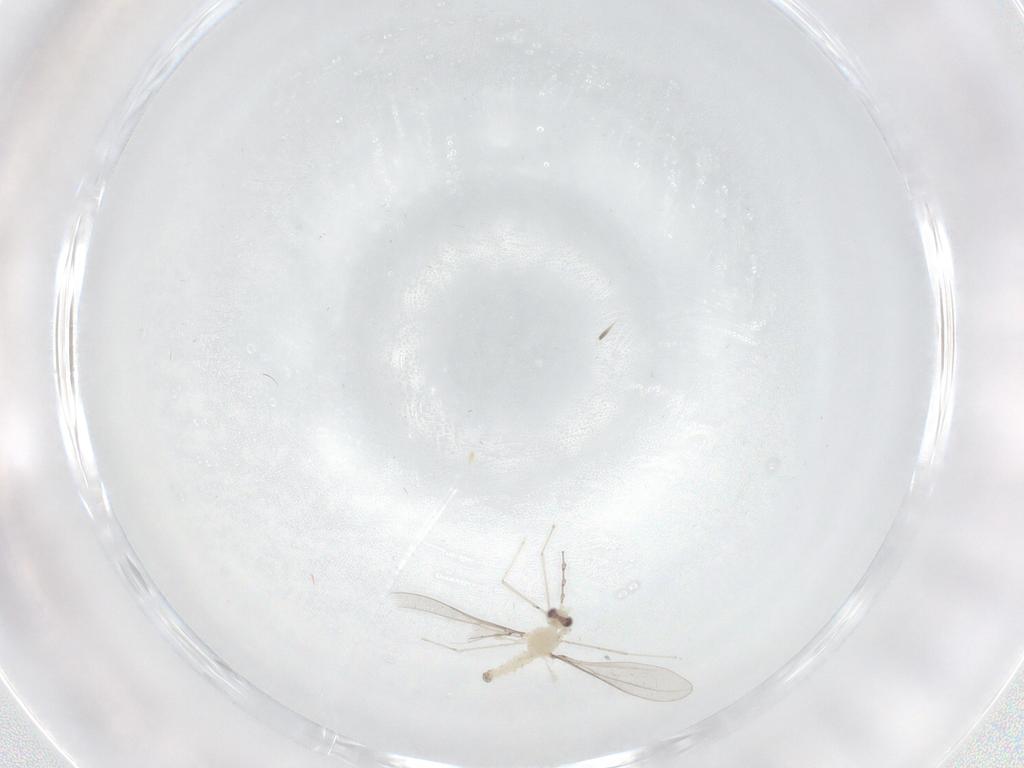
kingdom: Animalia
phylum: Arthropoda
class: Insecta
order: Diptera
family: Cecidomyiidae
